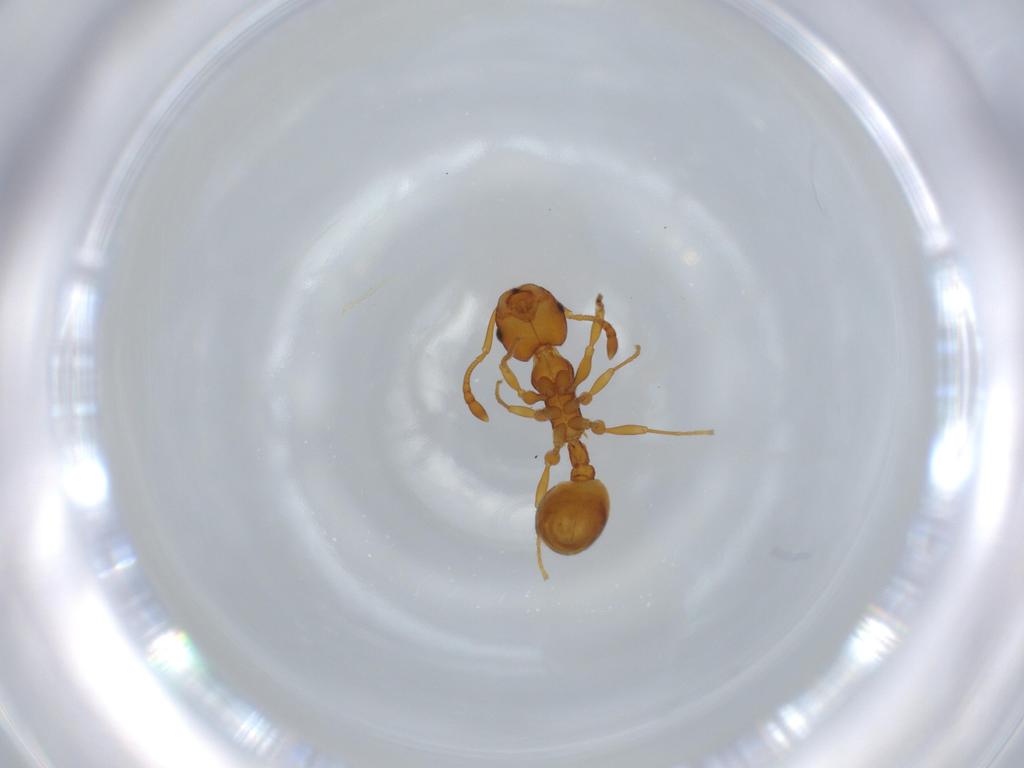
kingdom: Animalia
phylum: Arthropoda
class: Insecta
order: Hymenoptera
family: Formicidae
